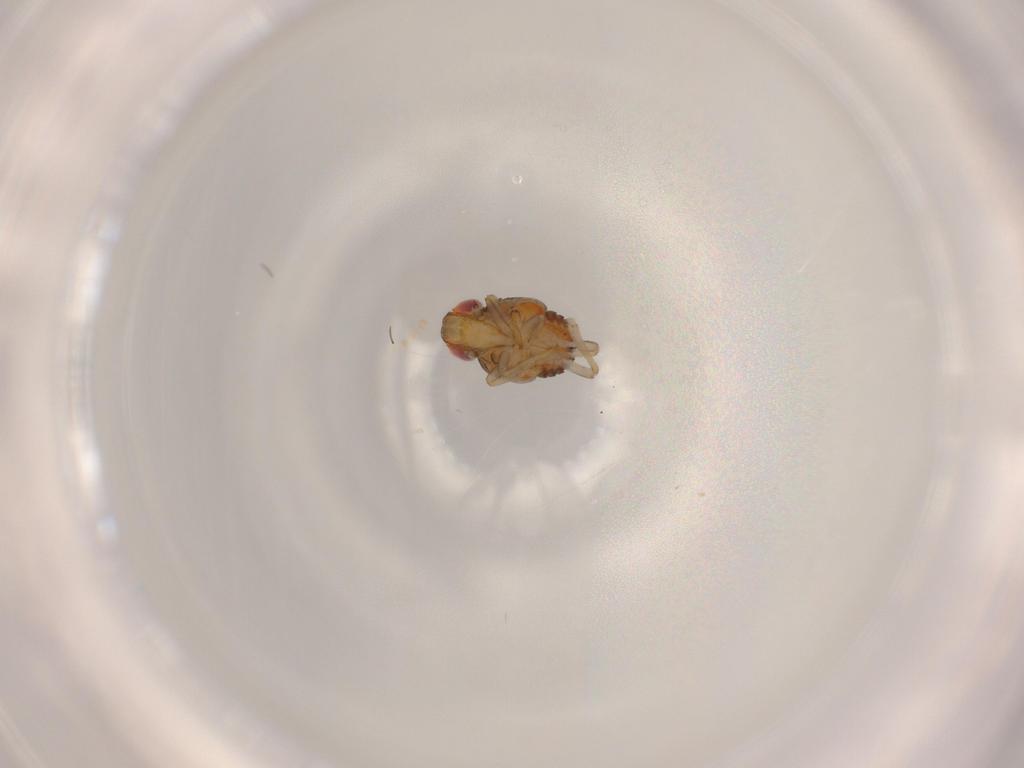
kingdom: Animalia
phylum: Arthropoda
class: Insecta
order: Hemiptera
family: Issidae
